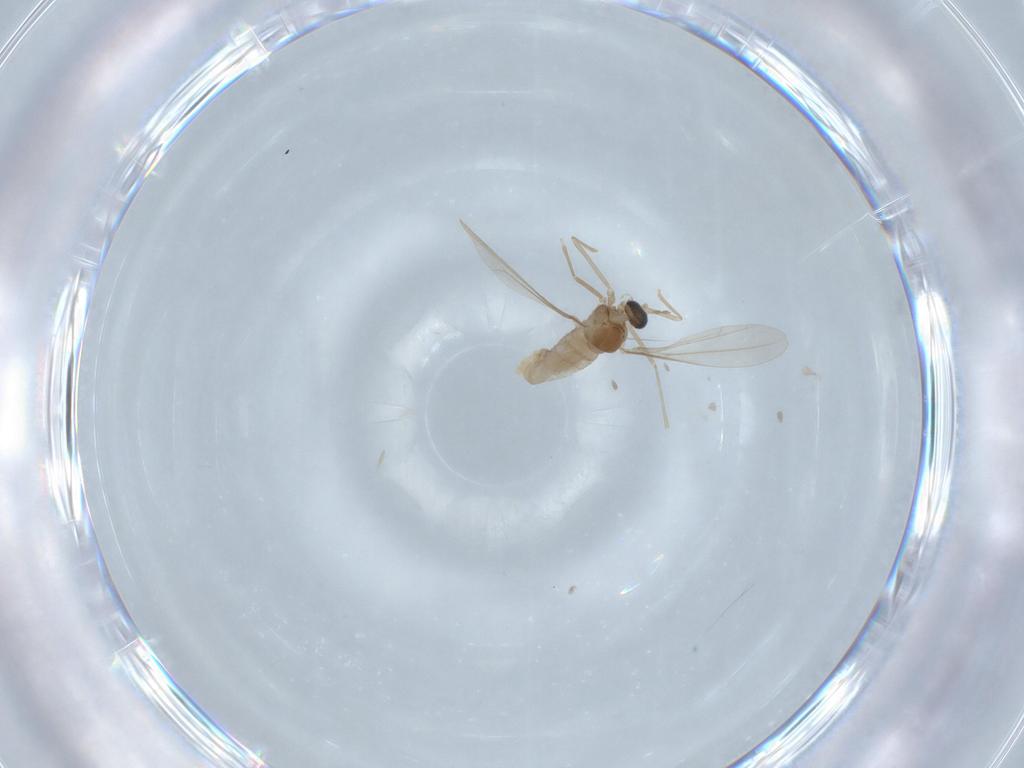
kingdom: Animalia
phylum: Arthropoda
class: Insecta
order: Diptera
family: Cecidomyiidae
